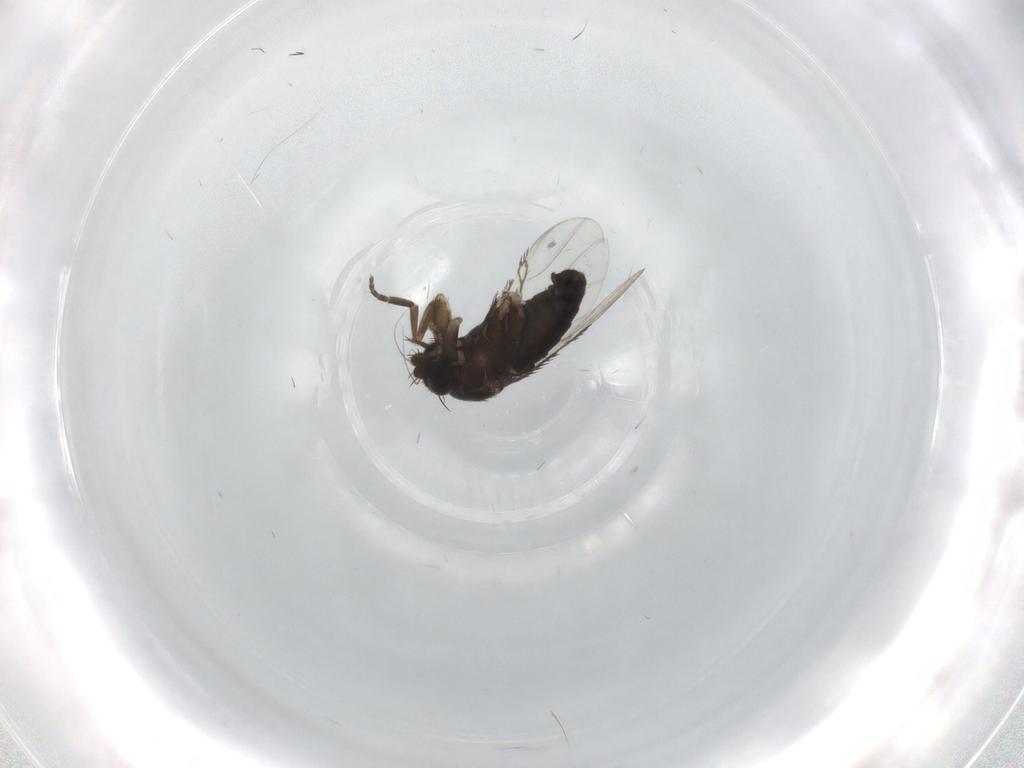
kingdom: Animalia
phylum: Arthropoda
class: Insecta
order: Diptera
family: Phoridae
